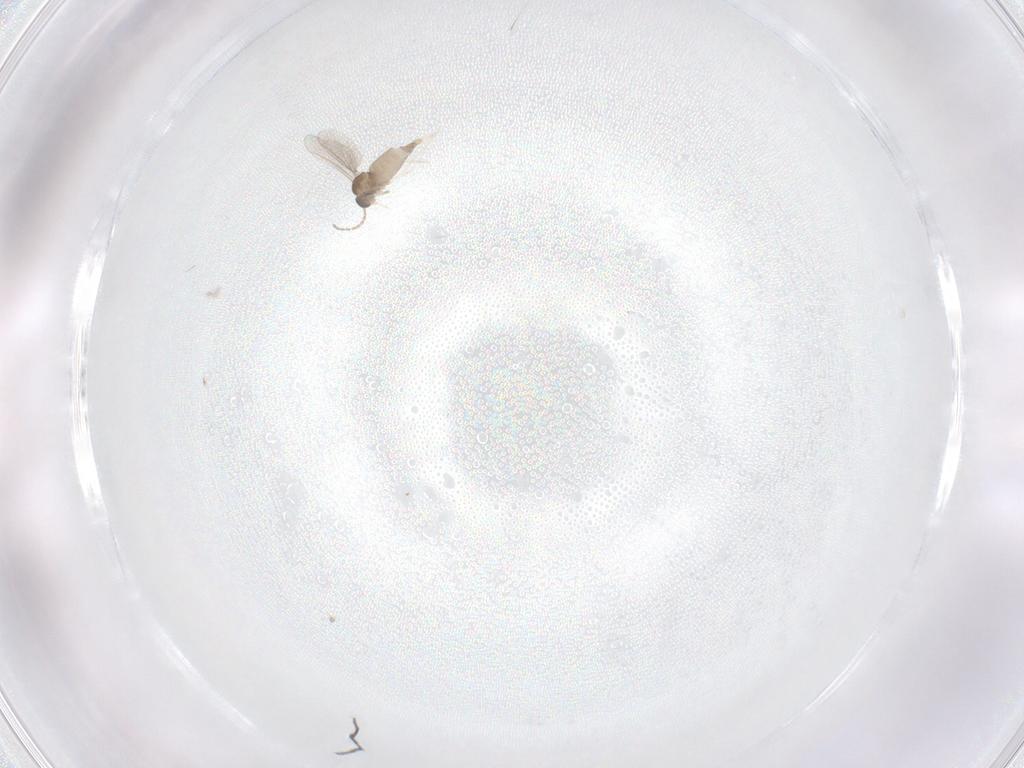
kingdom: Animalia
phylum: Arthropoda
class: Insecta
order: Diptera
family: Cecidomyiidae
